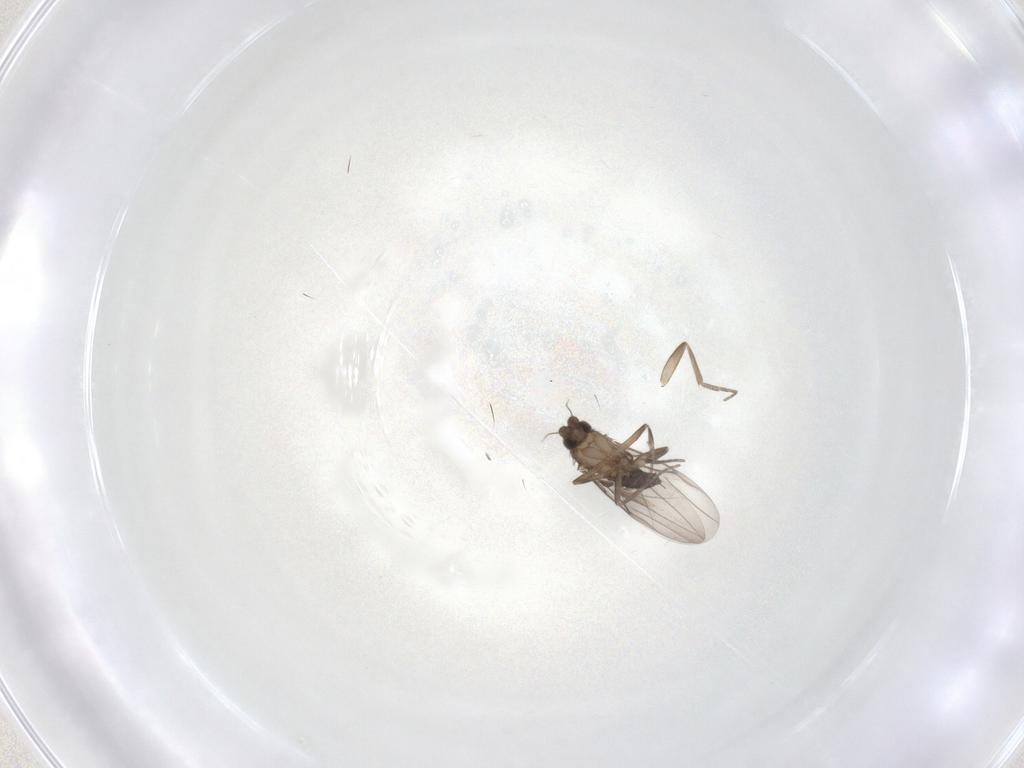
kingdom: Animalia
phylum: Arthropoda
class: Insecta
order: Diptera
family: Phoridae
